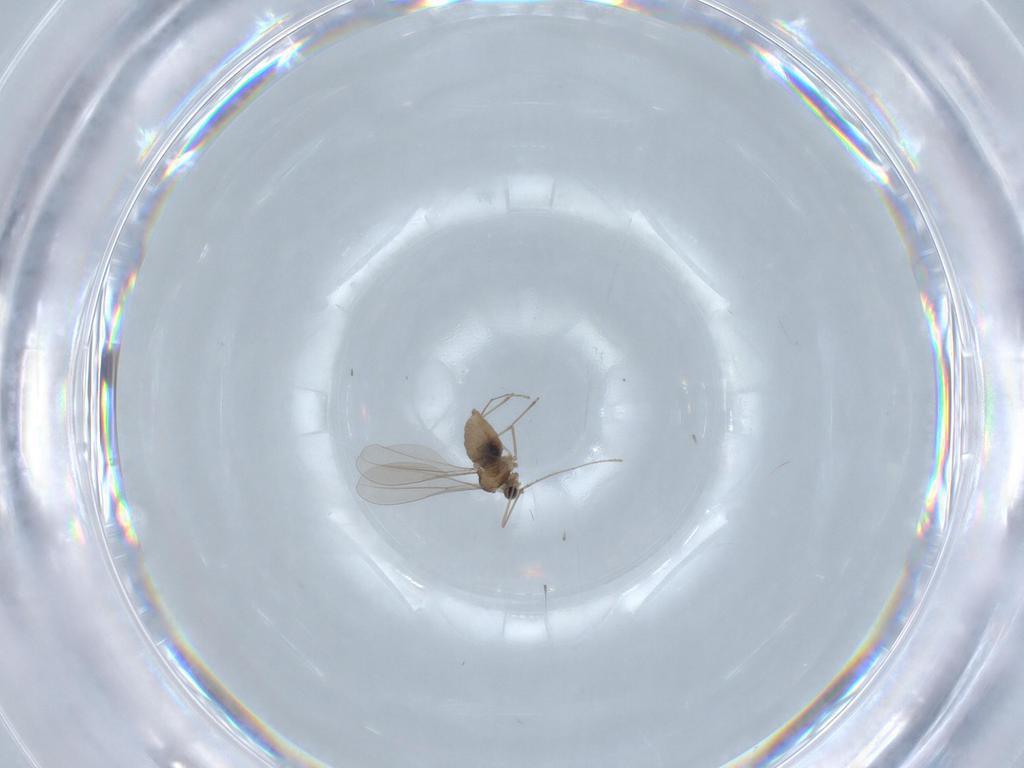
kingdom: Animalia
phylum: Arthropoda
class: Insecta
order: Diptera
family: Cecidomyiidae
